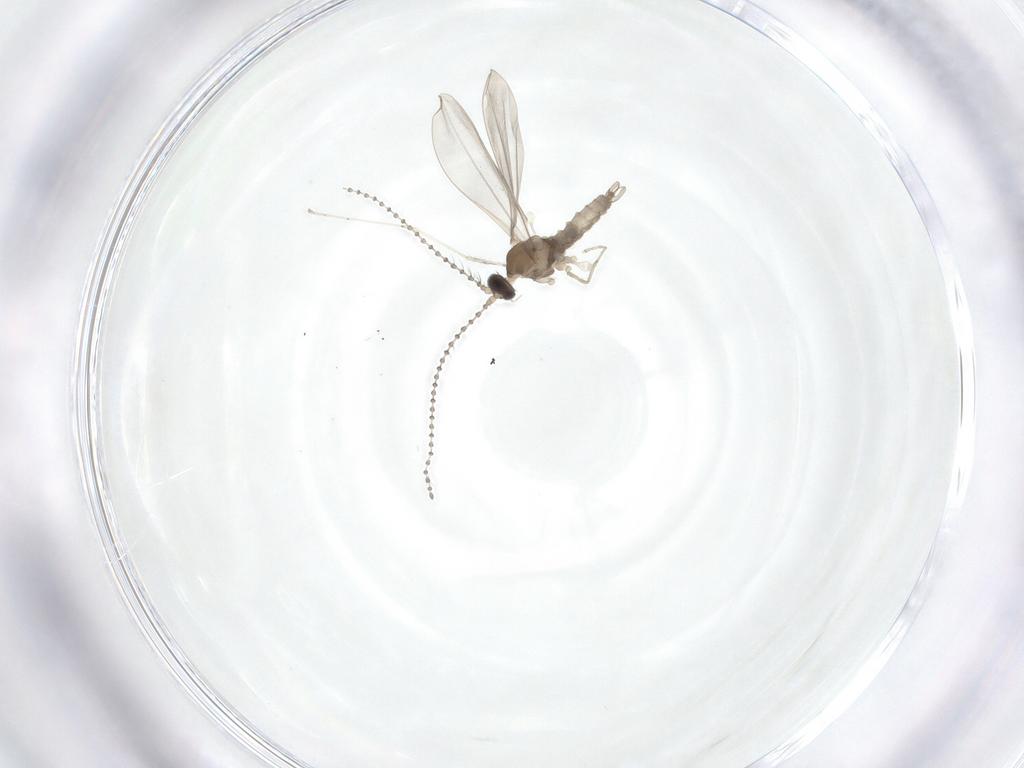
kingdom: Animalia
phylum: Arthropoda
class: Insecta
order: Diptera
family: Cecidomyiidae
